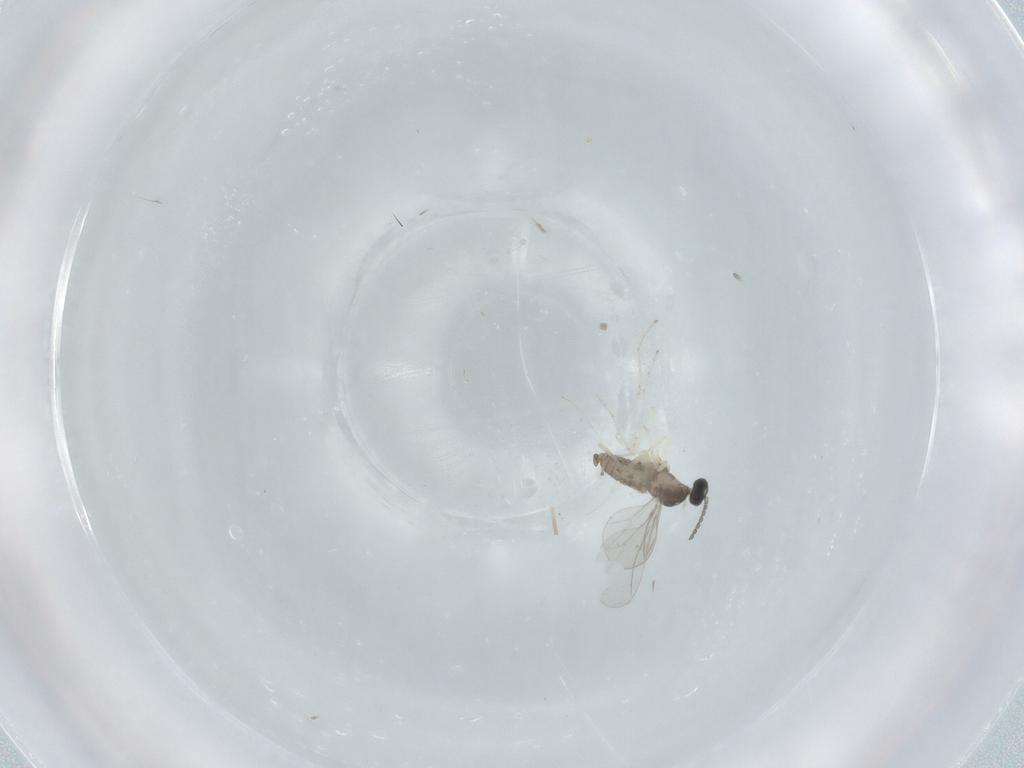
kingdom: Animalia
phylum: Arthropoda
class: Insecta
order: Diptera
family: Cecidomyiidae
